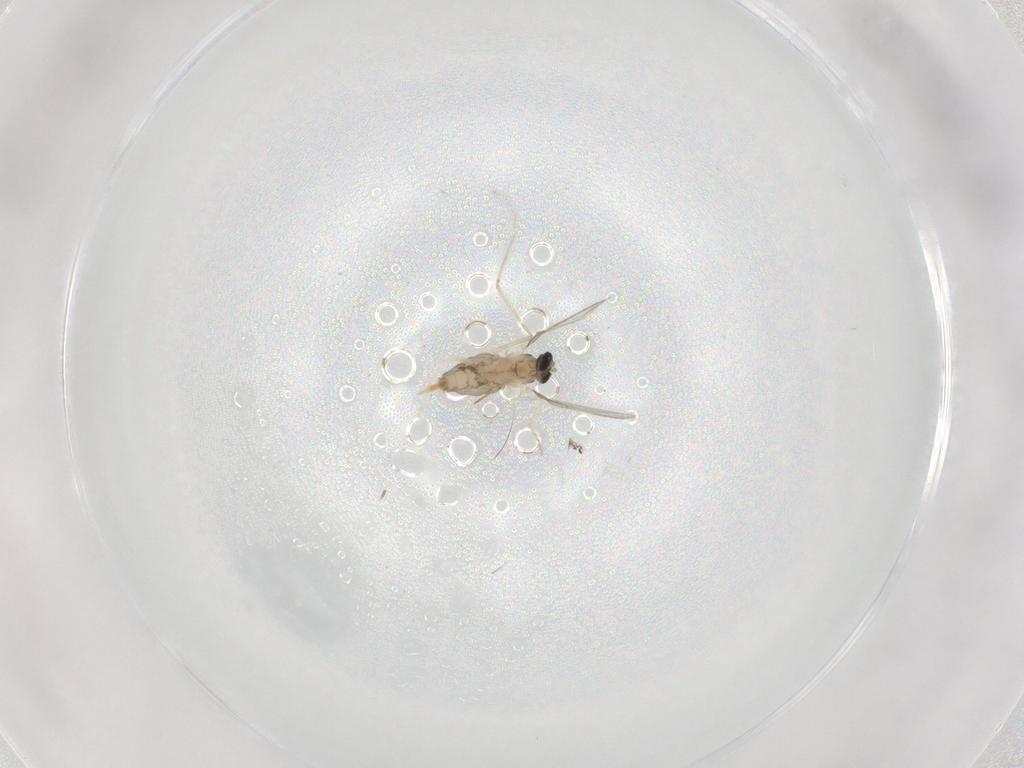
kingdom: Animalia
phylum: Arthropoda
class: Insecta
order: Diptera
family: Cecidomyiidae
